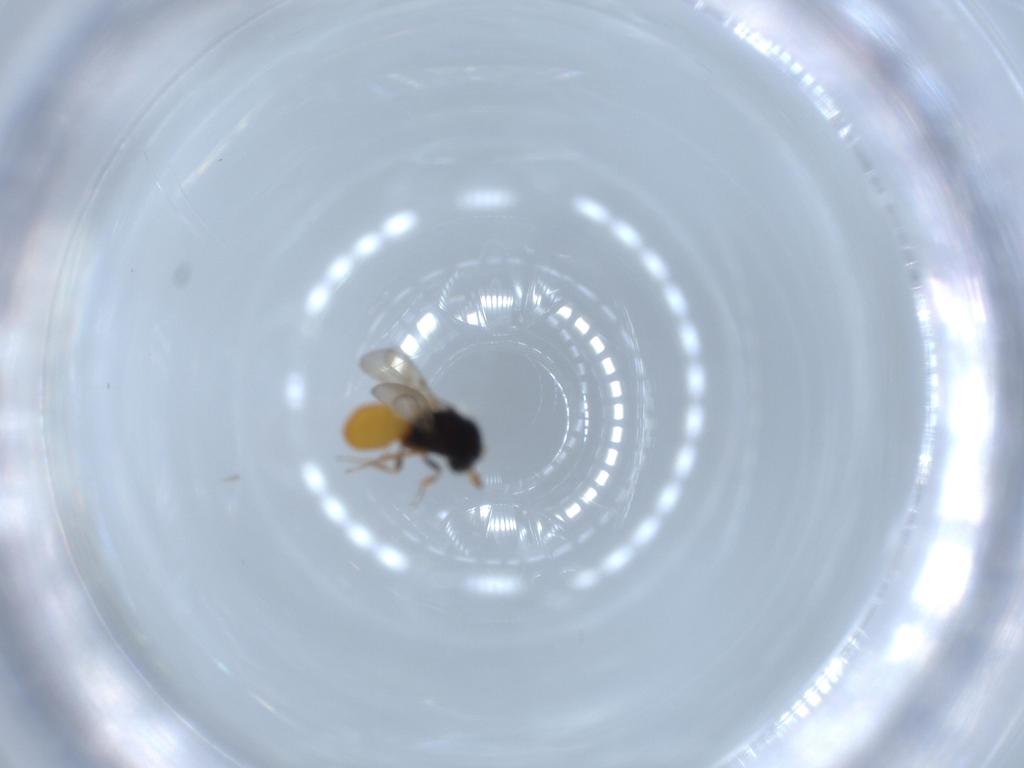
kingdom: Animalia
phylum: Arthropoda
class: Insecta
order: Hymenoptera
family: Scelionidae
